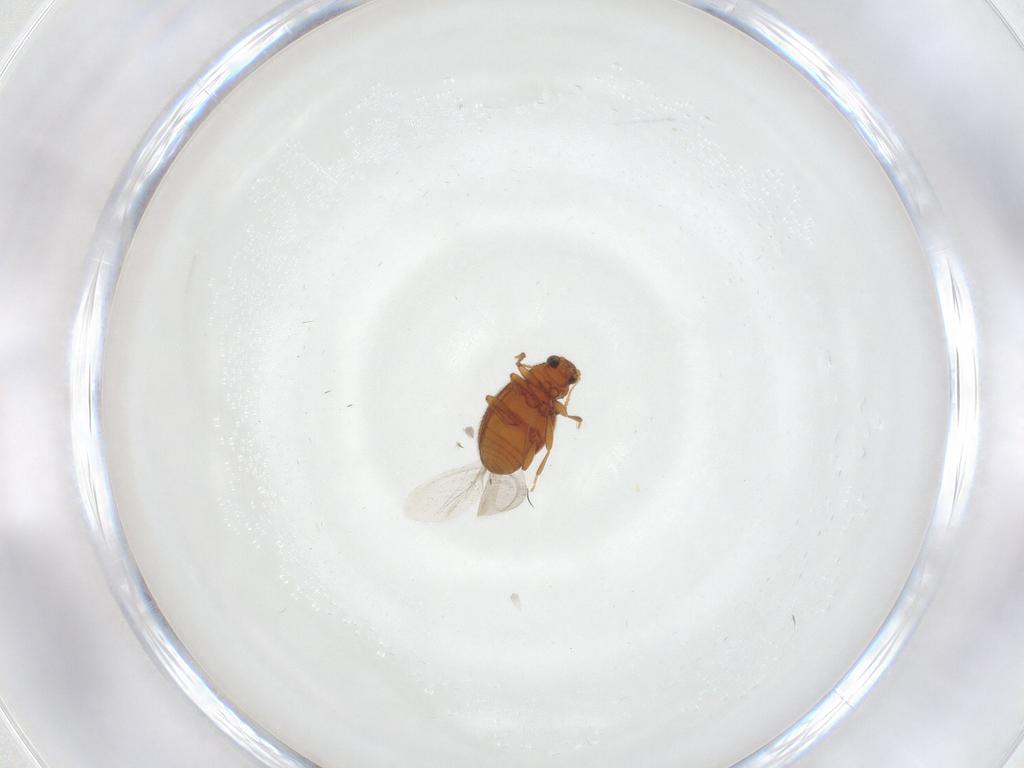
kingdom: Animalia
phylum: Arthropoda
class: Insecta
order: Coleoptera
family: Latridiidae
